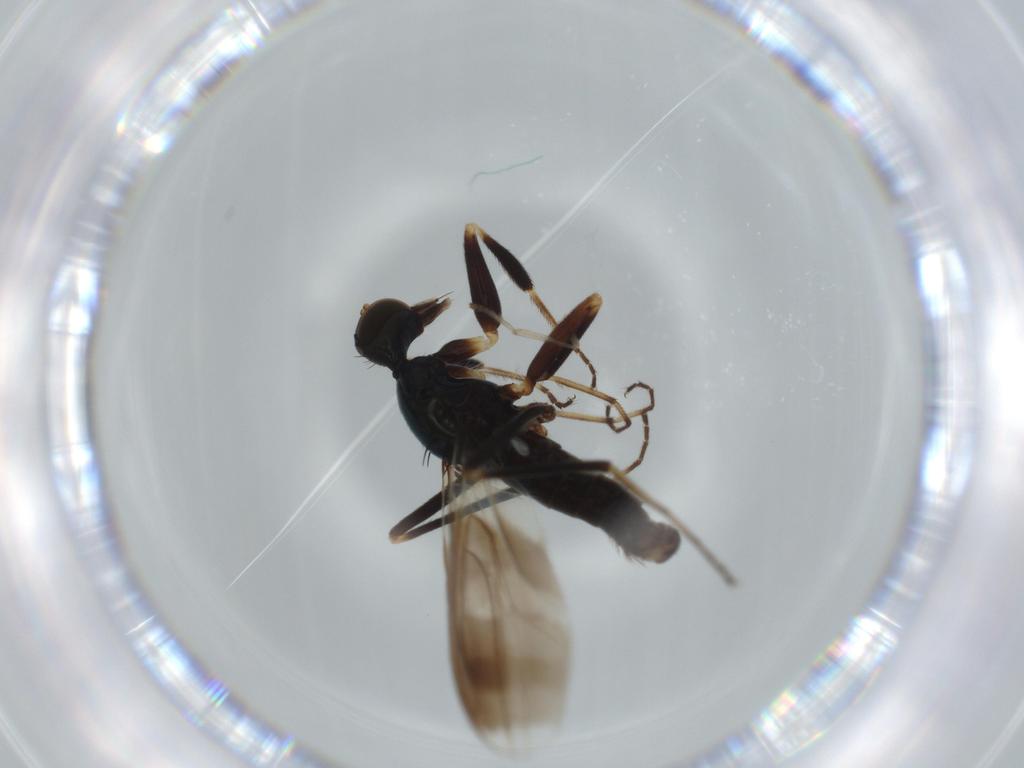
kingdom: Animalia
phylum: Arthropoda
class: Insecta
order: Diptera
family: Hybotidae
